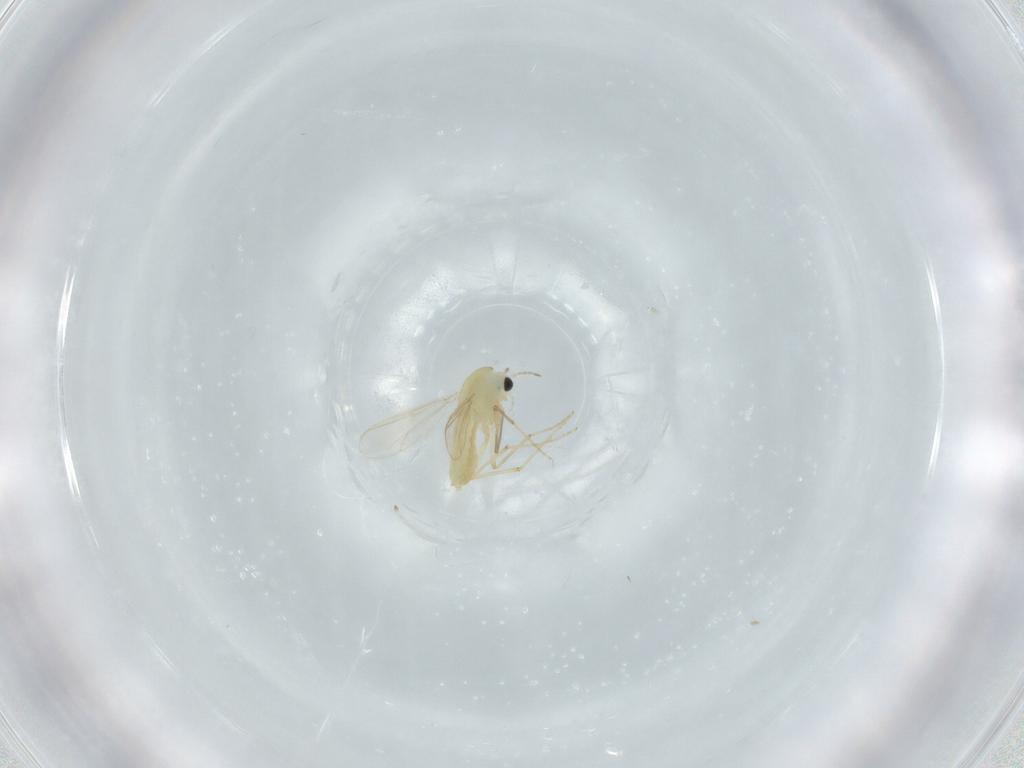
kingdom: Animalia
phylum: Arthropoda
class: Insecta
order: Diptera
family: Chironomidae
